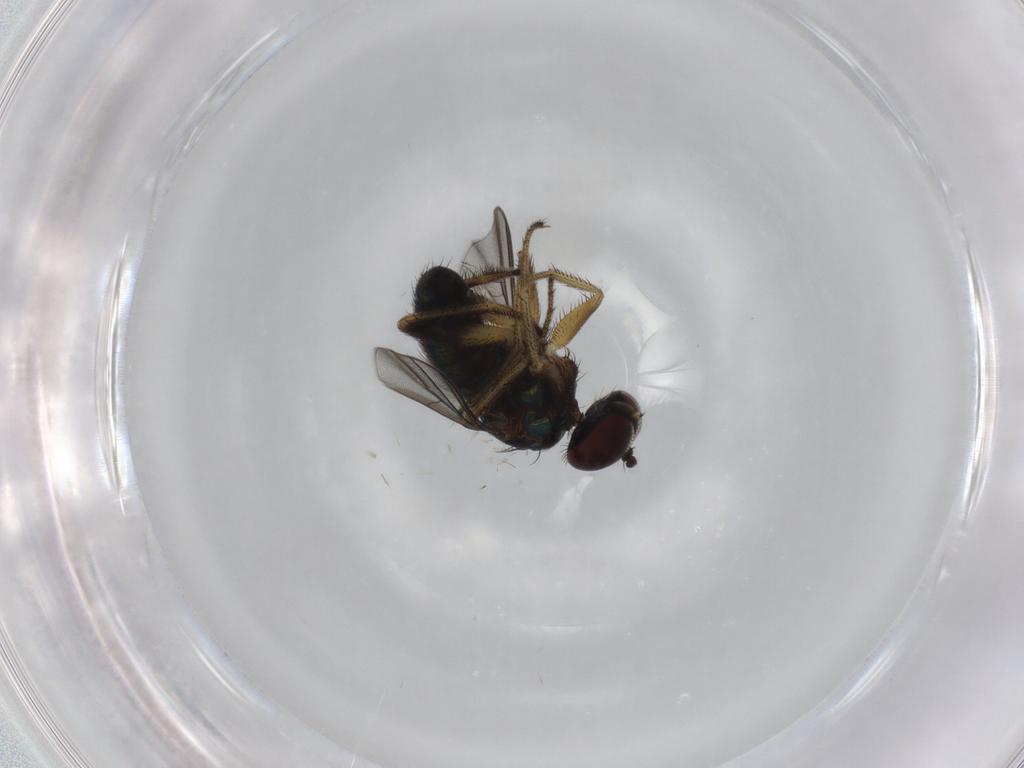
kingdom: Animalia
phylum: Arthropoda
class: Insecta
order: Diptera
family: Dolichopodidae
